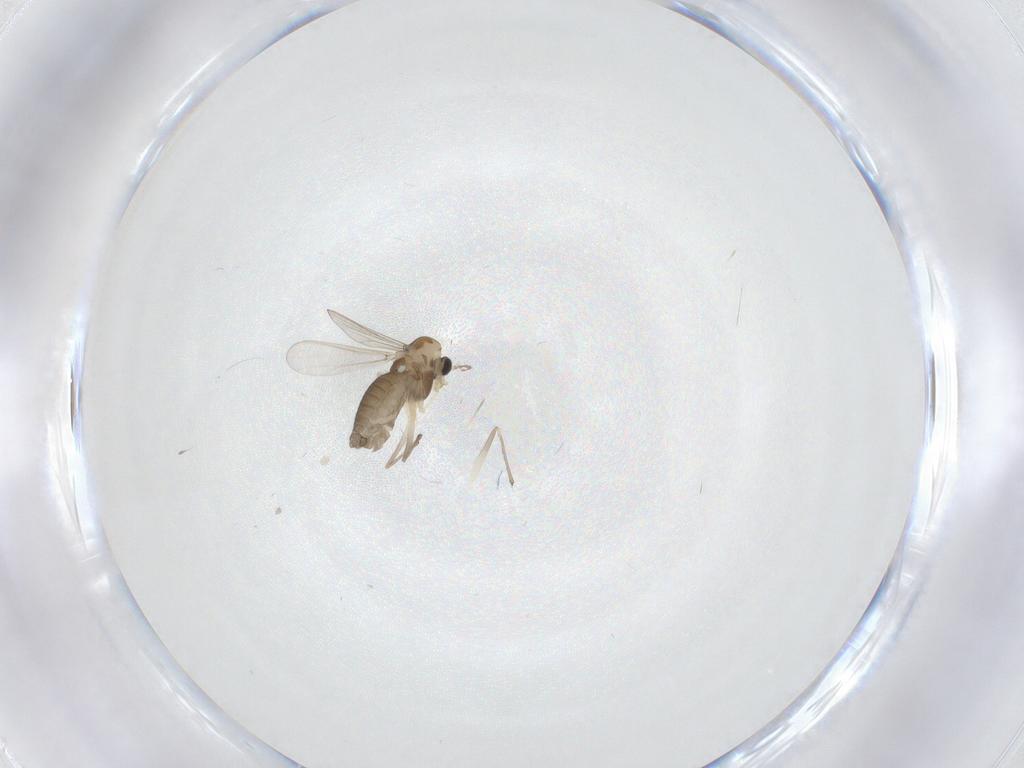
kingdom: Animalia
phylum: Arthropoda
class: Insecta
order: Diptera
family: Chironomidae
